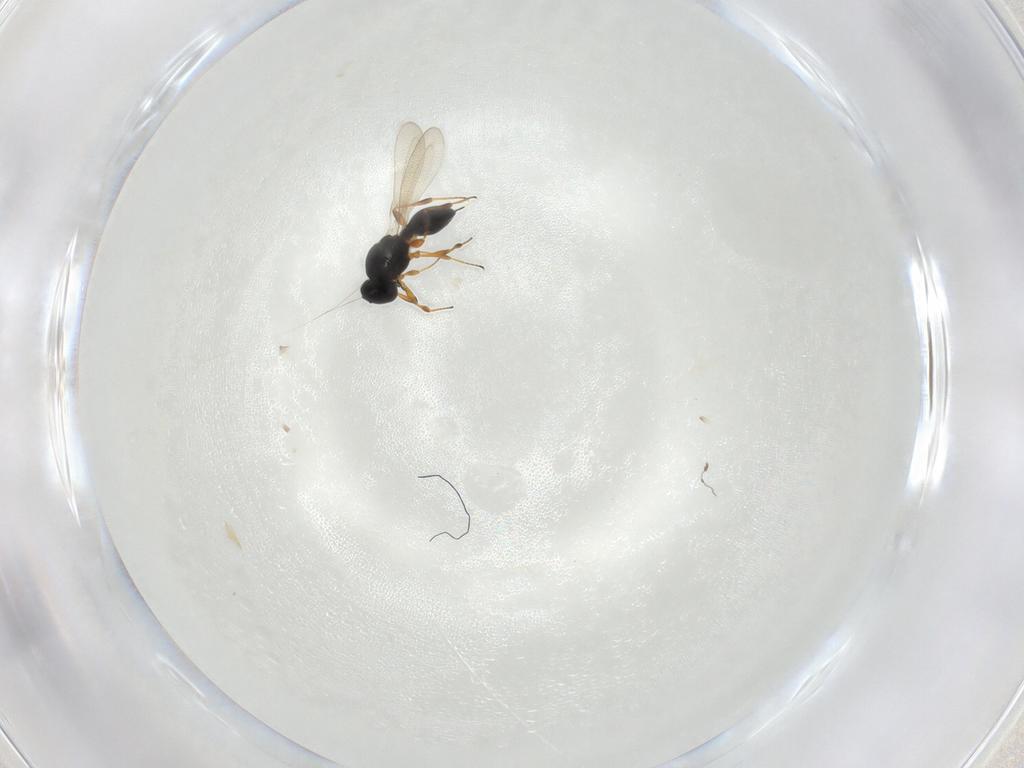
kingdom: Animalia
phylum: Arthropoda
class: Insecta
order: Hymenoptera
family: Platygastridae
